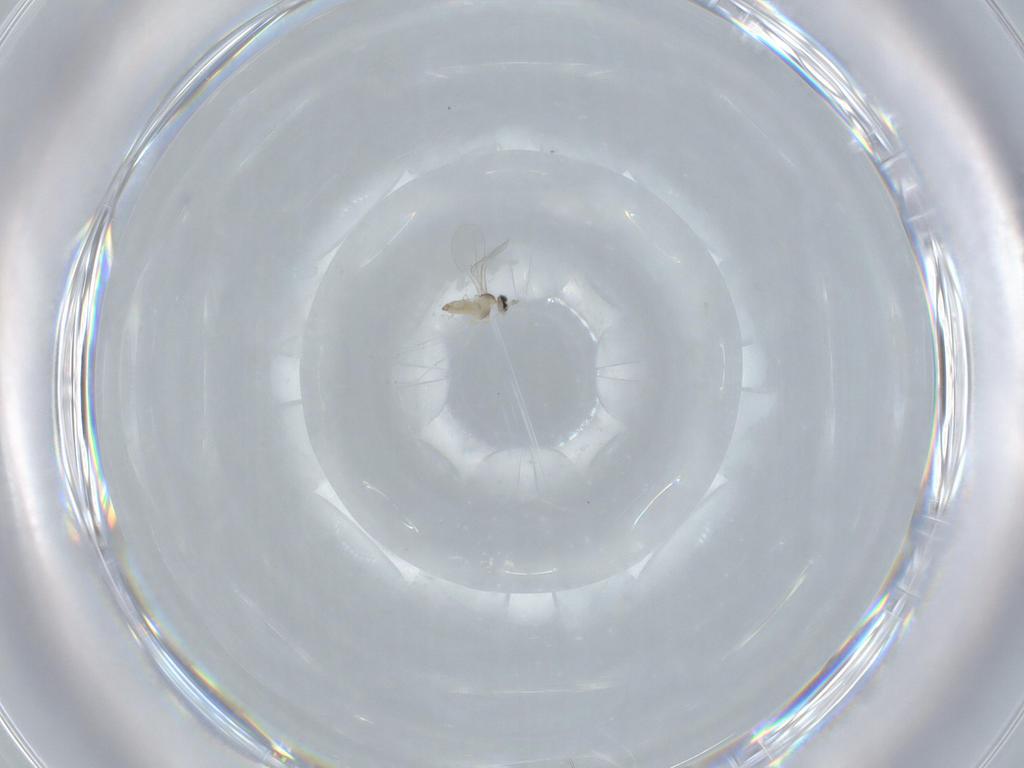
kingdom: Animalia
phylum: Arthropoda
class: Insecta
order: Diptera
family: Cecidomyiidae
